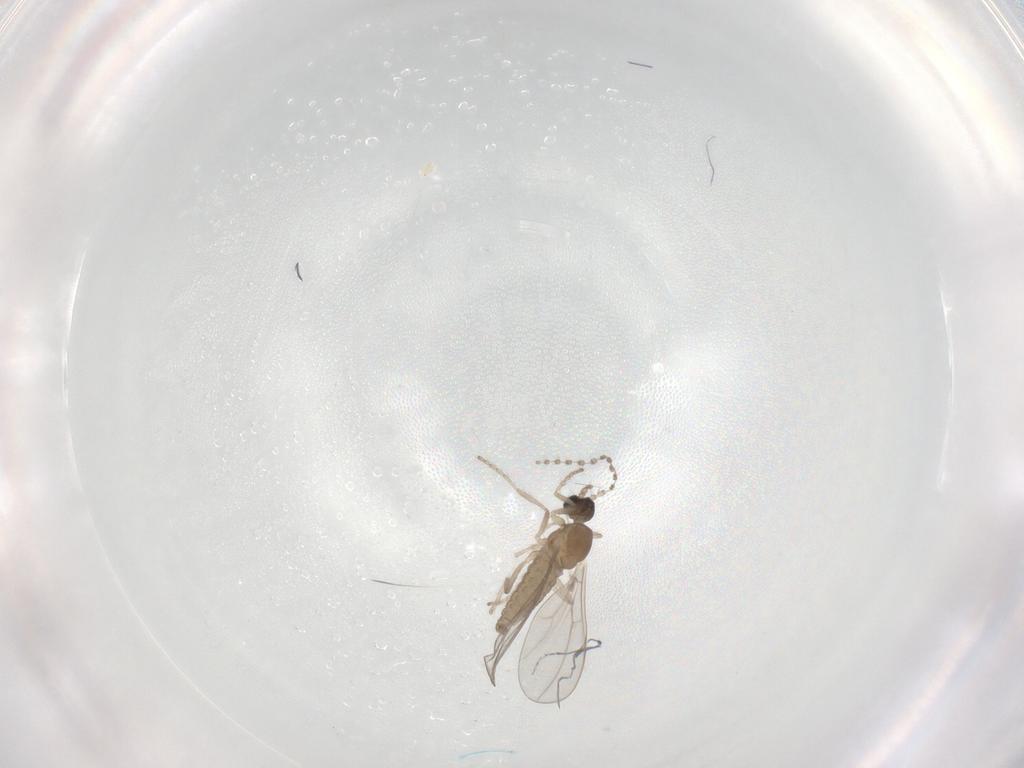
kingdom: Animalia
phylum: Arthropoda
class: Insecta
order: Diptera
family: Cecidomyiidae
